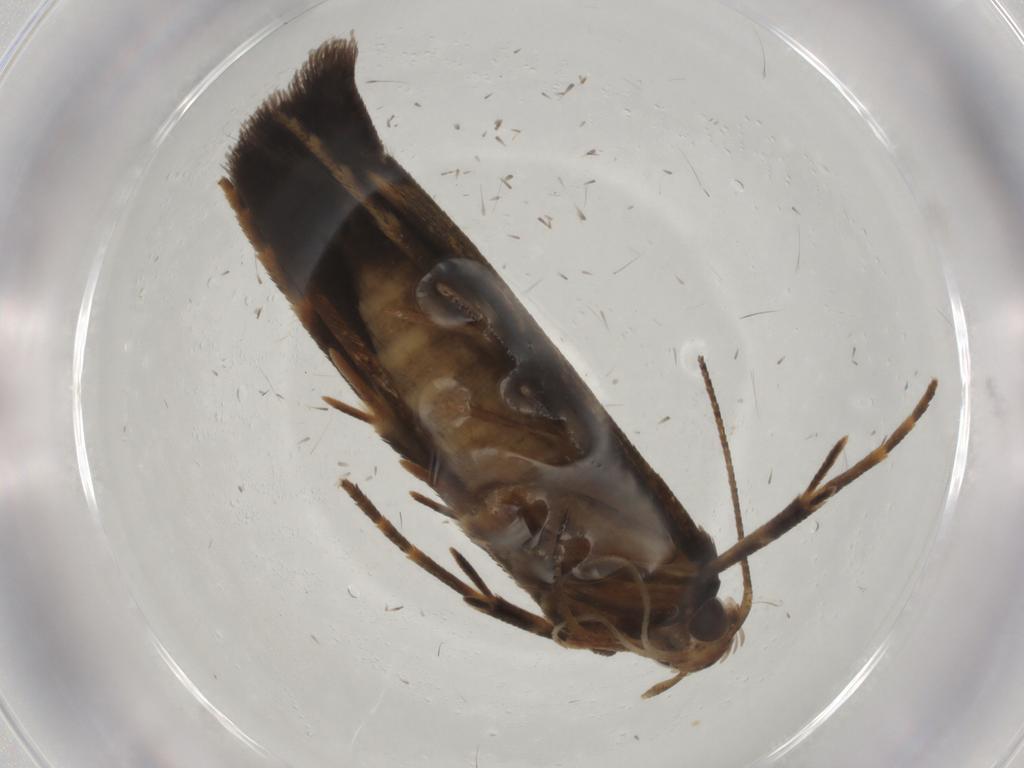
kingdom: Animalia
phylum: Arthropoda
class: Insecta
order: Lepidoptera
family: Gelechiidae
